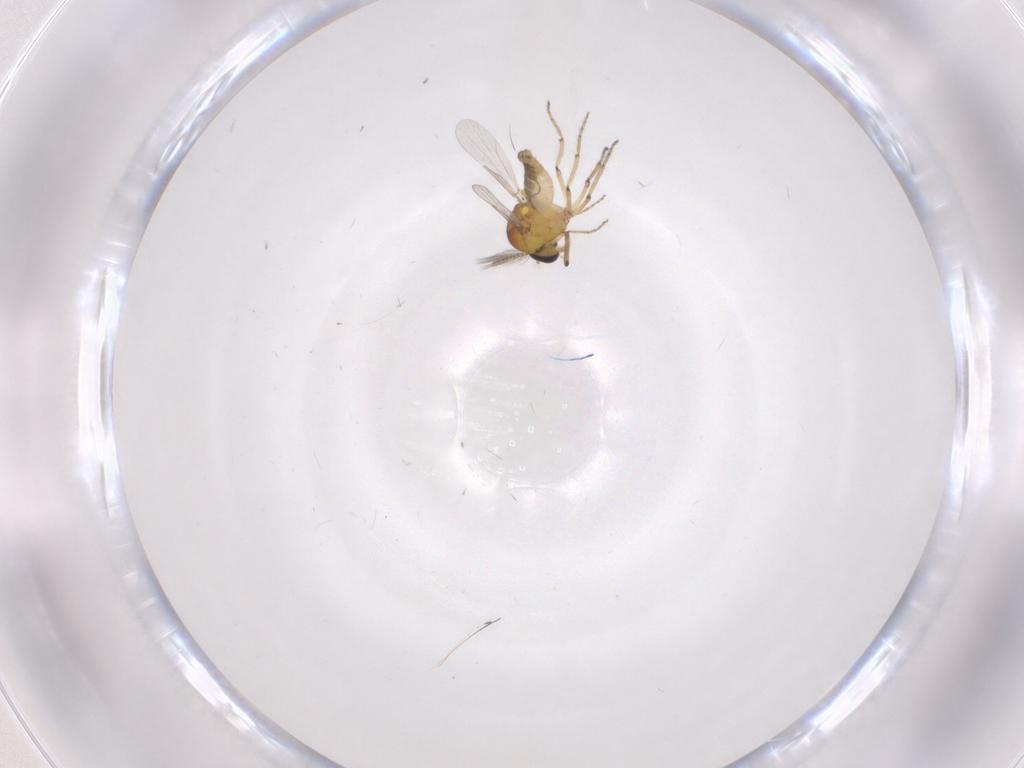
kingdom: Animalia
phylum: Arthropoda
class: Insecta
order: Diptera
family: Ceratopogonidae
